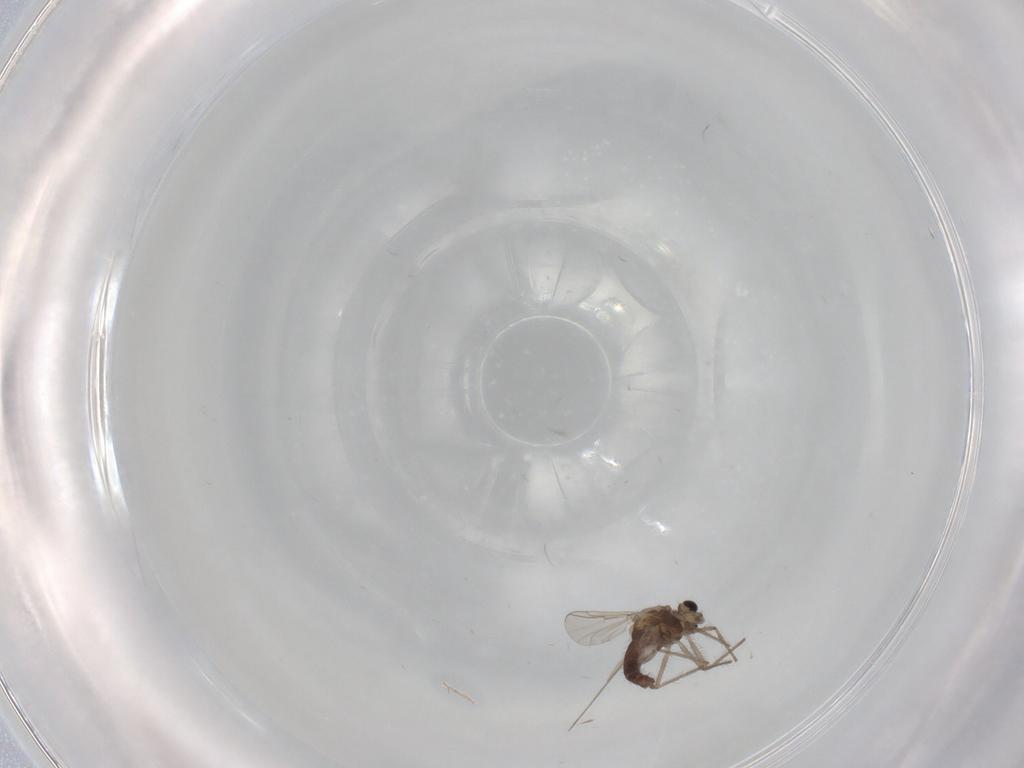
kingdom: Animalia
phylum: Arthropoda
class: Insecta
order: Diptera
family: Chironomidae
